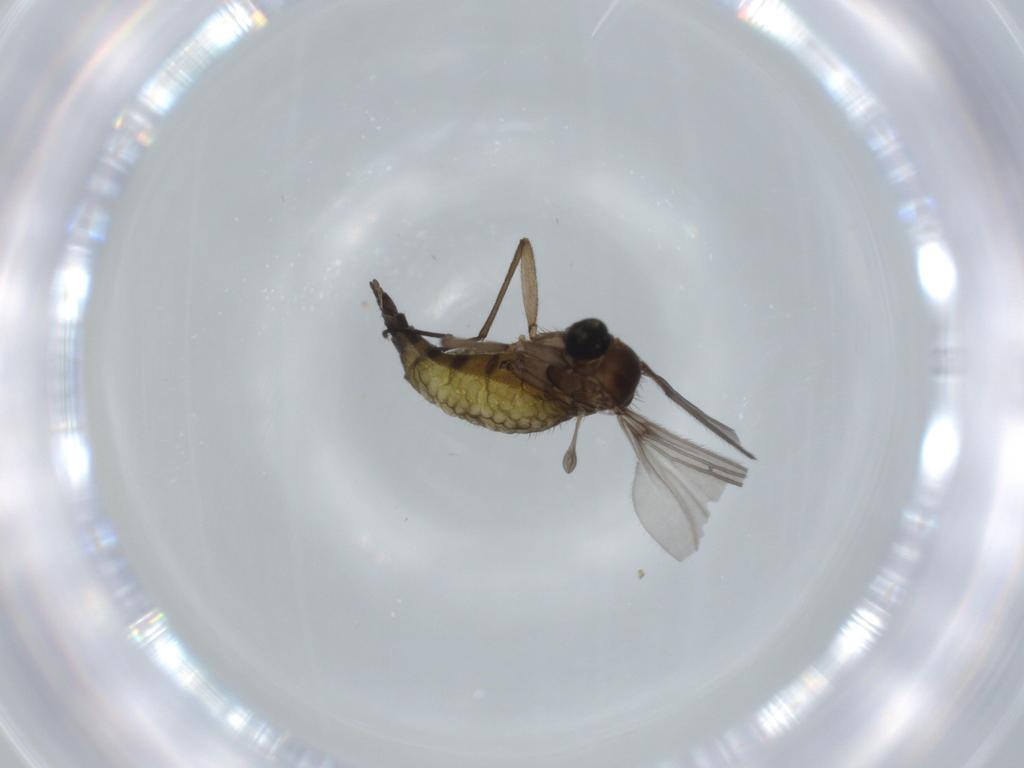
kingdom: Animalia
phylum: Arthropoda
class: Insecta
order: Diptera
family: Sciaridae
